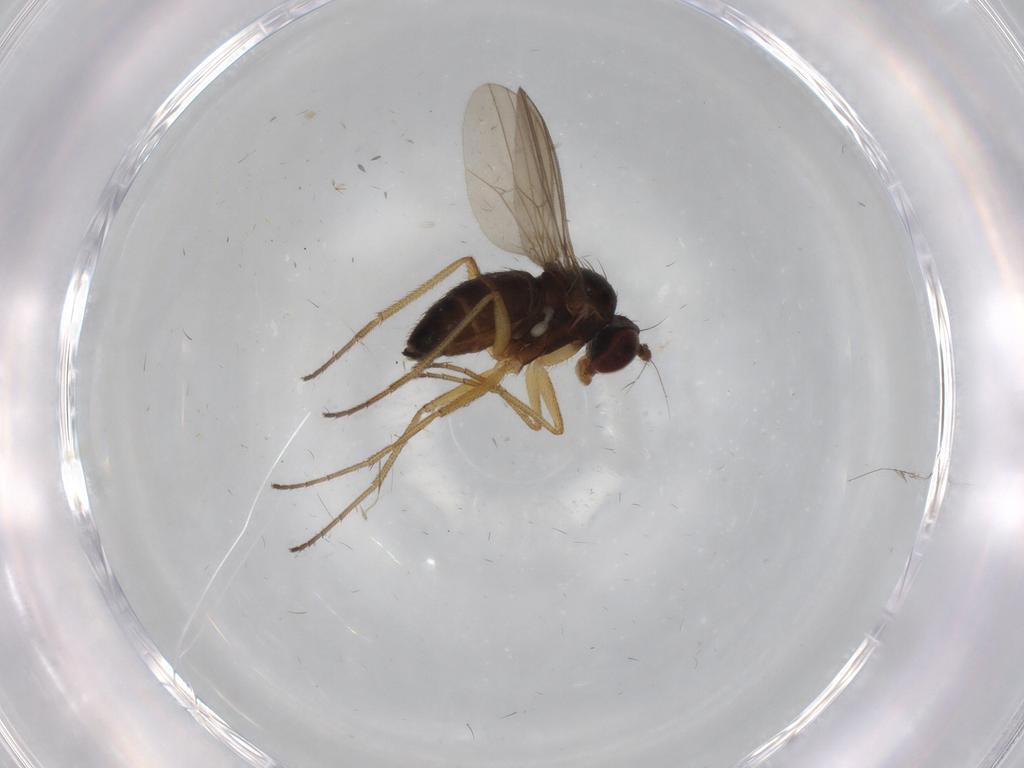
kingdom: Animalia
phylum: Arthropoda
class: Insecta
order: Diptera
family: Dolichopodidae
